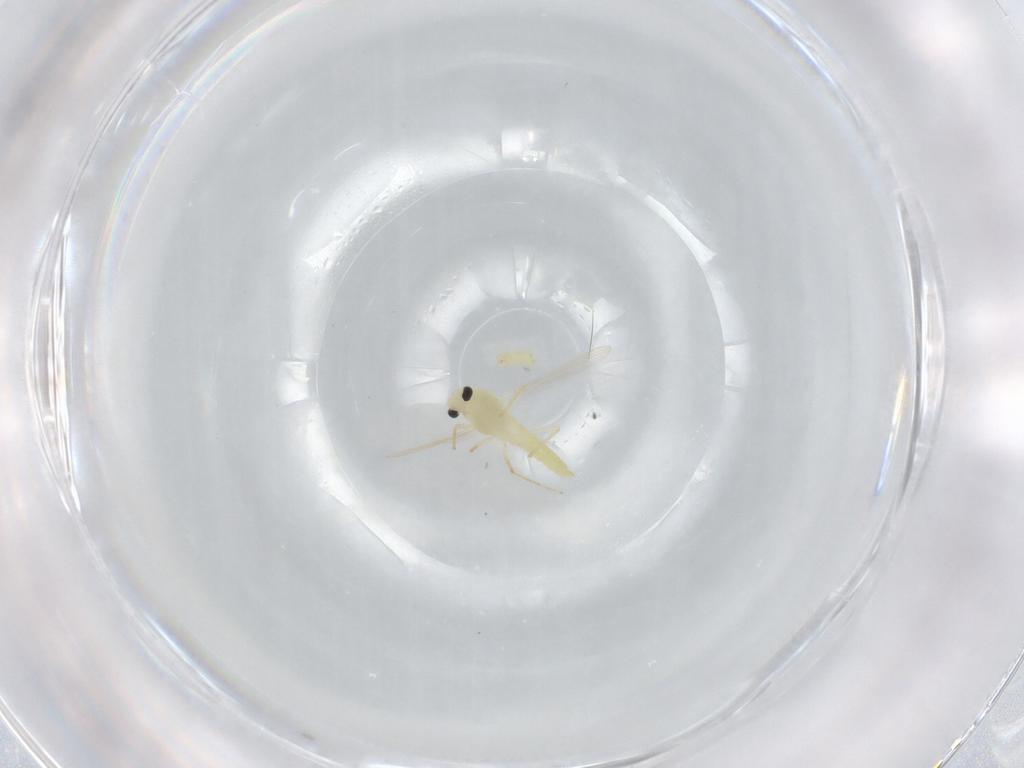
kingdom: Animalia
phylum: Arthropoda
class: Insecta
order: Diptera
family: Chironomidae
